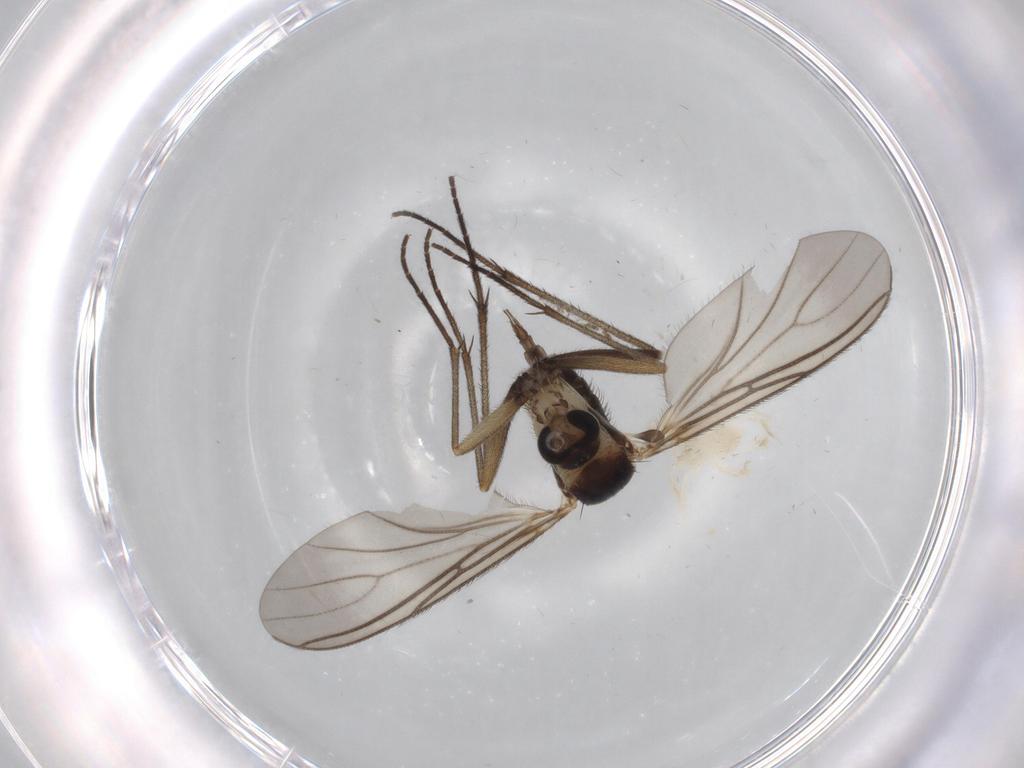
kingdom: Animalia
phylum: Arthropoda
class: Insecta
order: Diptera
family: Sciaridae
